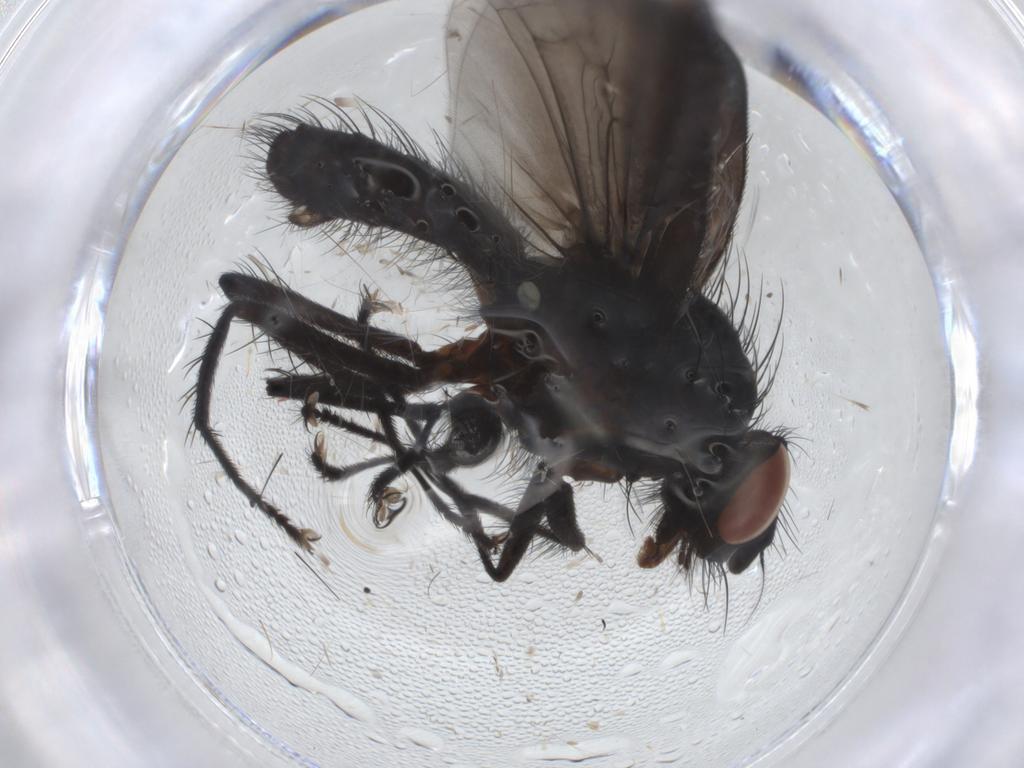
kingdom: Animalia
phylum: Arthropoda
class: Insecta
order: Diptera
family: Anthomyiidae
